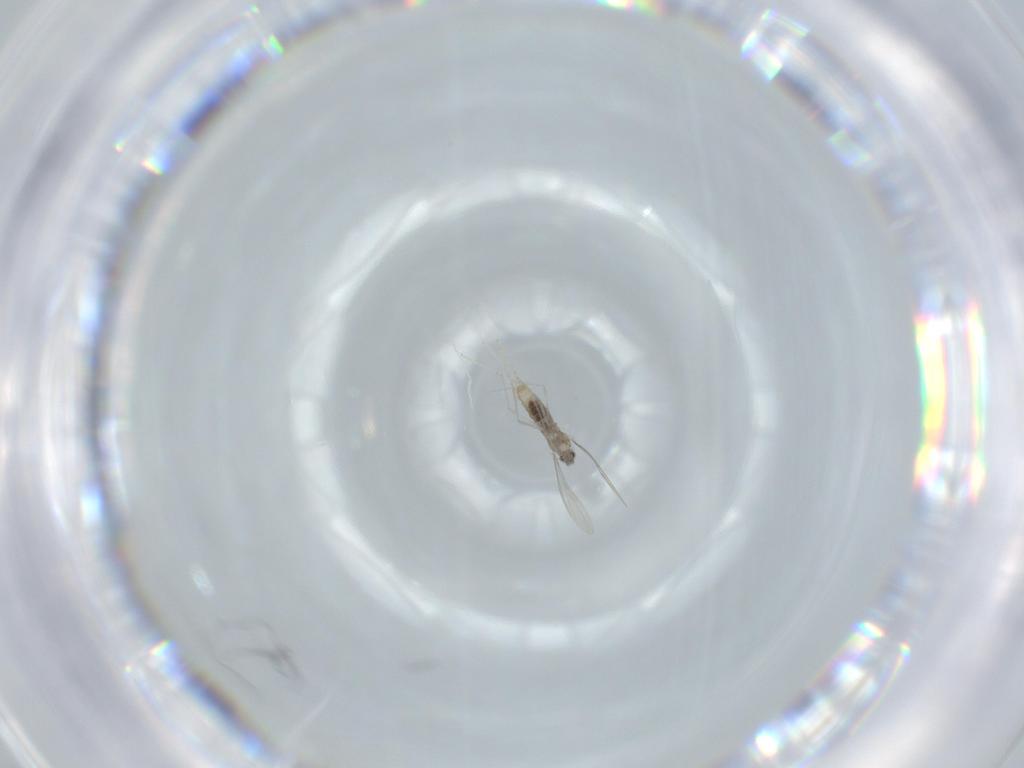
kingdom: Animalia
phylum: Arthropoda
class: Insecta
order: Diptera
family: Cecidomyiidae
